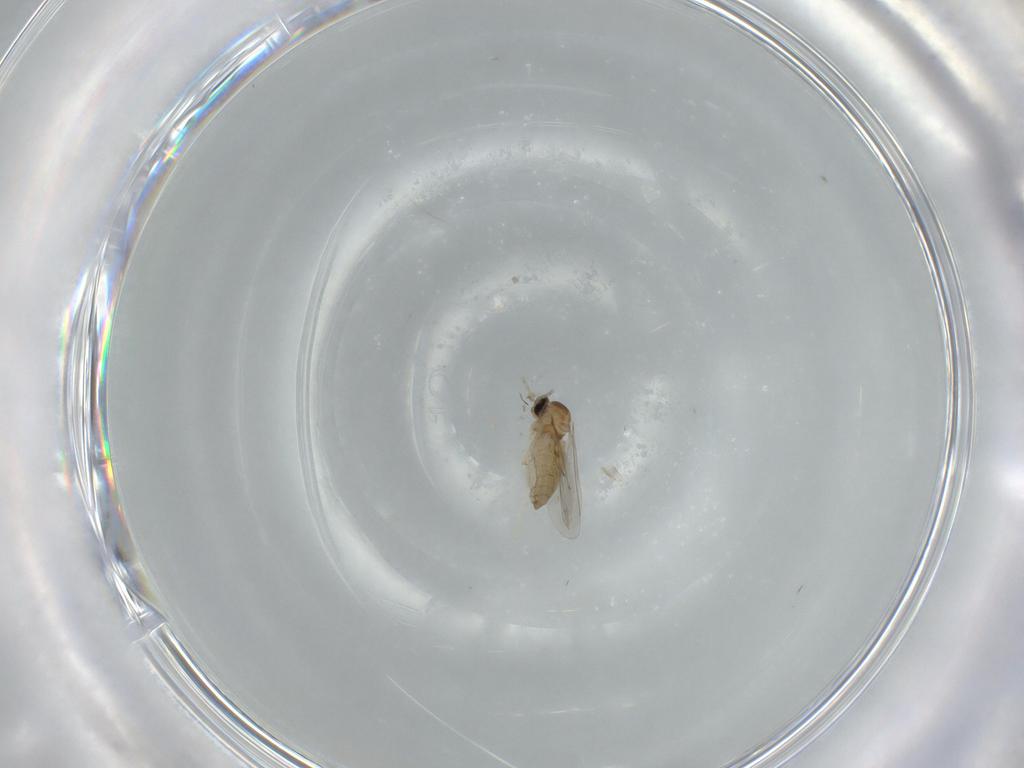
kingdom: Animalia
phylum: Arthropoda
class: Insecta
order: Diptera
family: Cecidomyiidae
